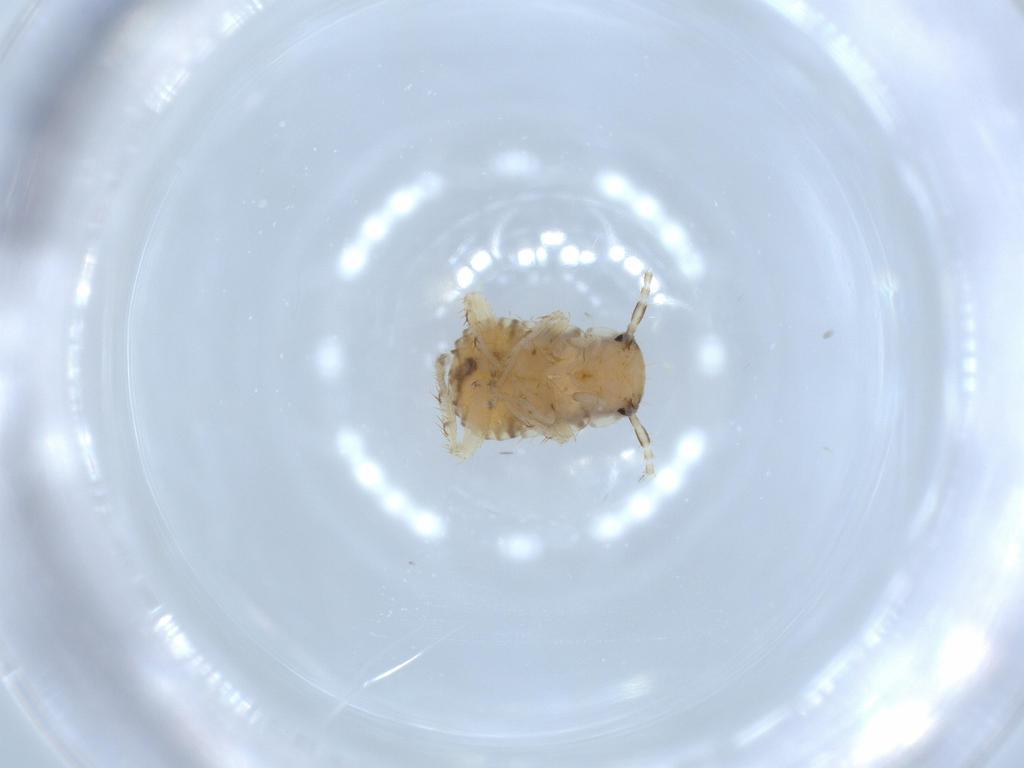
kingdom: Animalia
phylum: Arthropoda
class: Insecta
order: Blattodea
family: Ectobiidae
